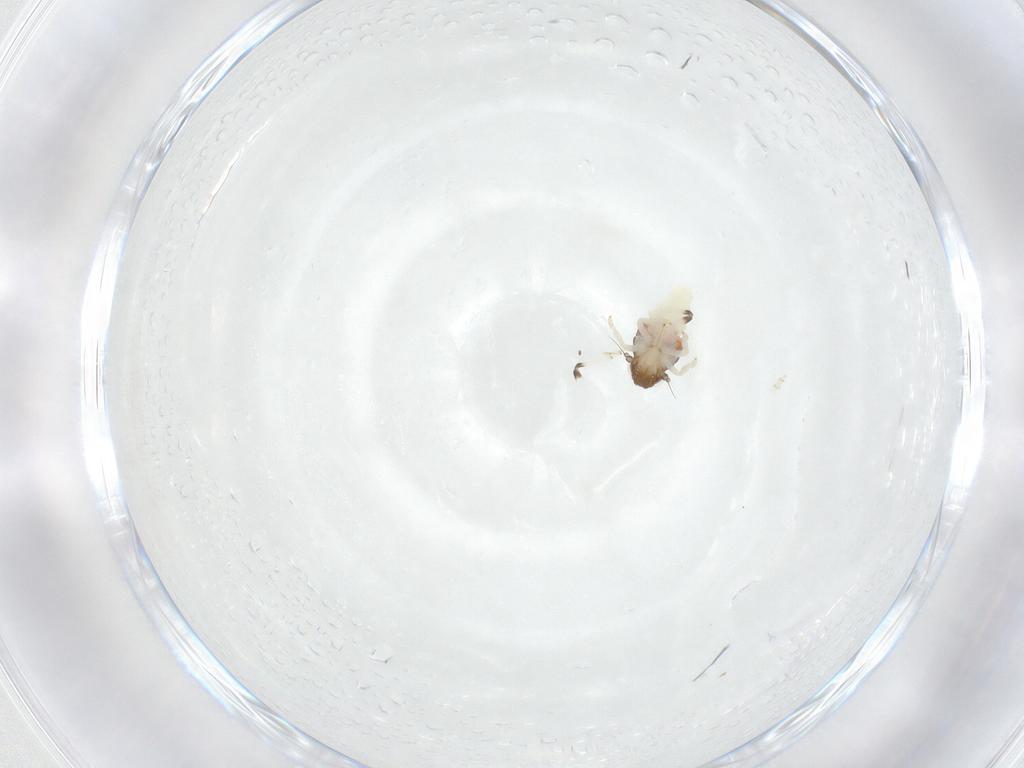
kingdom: Animalia
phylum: Arthropoda
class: Insecta
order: Hemiptera
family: Nogodinidae
